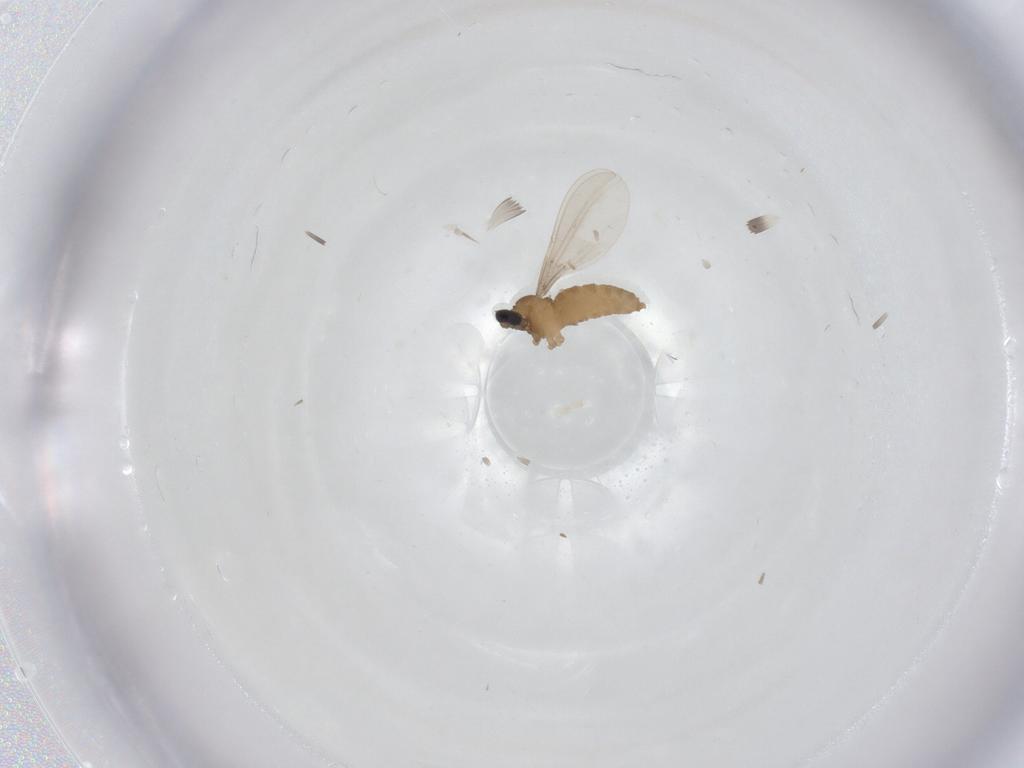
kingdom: Animalia
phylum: Arthropoda
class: Insecta
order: Diptera
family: Cecidomyiidae
